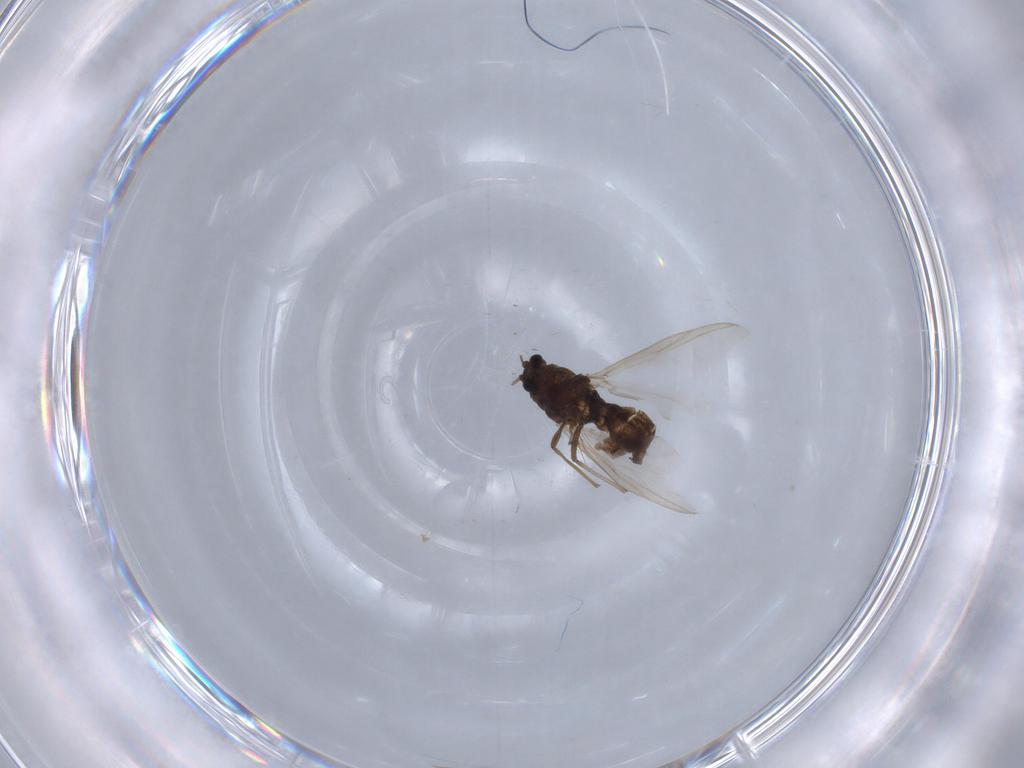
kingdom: Animalia
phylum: Arthropoda
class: Insecta
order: Diptera
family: Chironomidae
